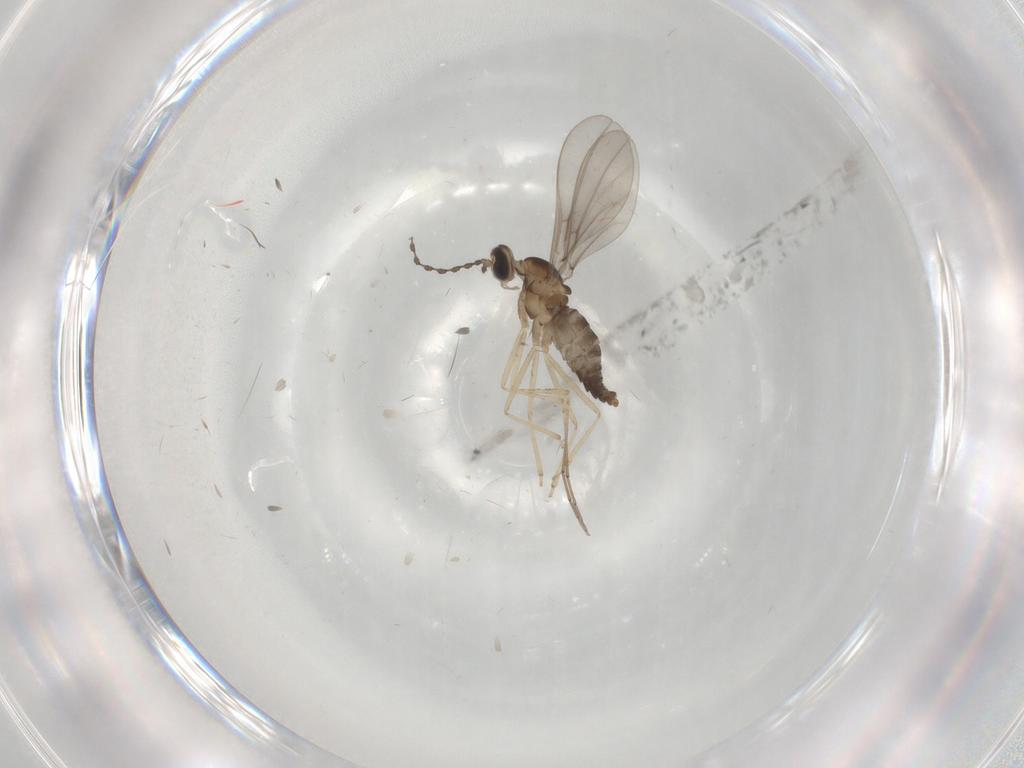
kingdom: Animalia
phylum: Arthropoda
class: Insecta
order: Diptera
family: Cecidomyiidae
